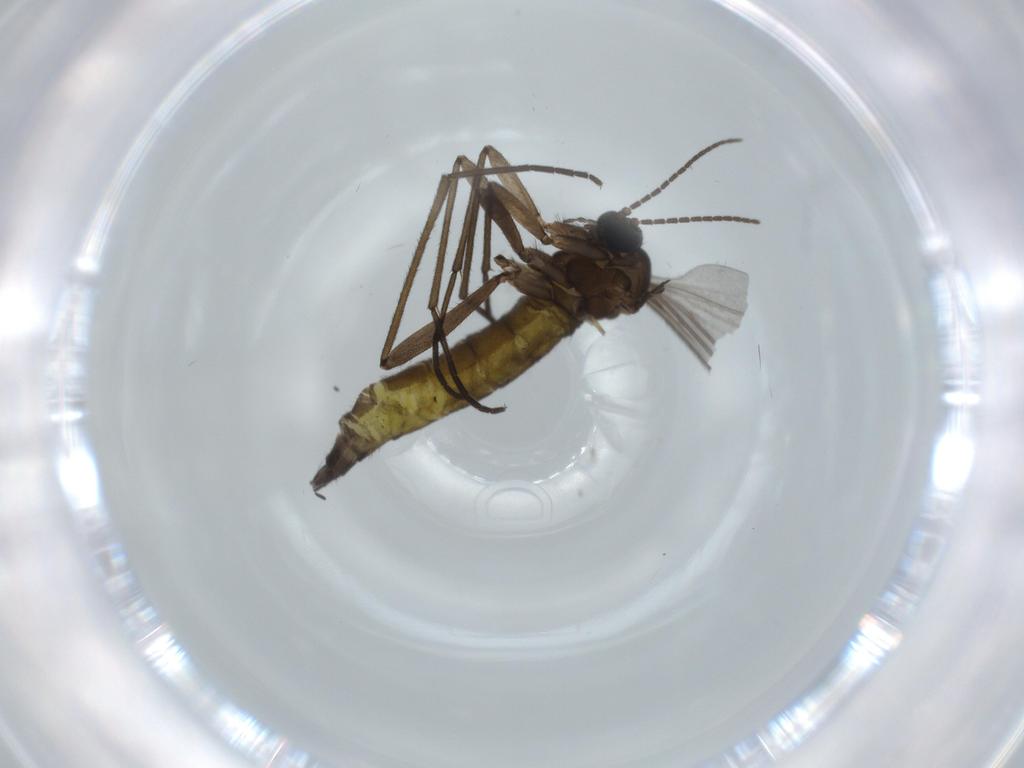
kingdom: Animalia
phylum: Arthropoda
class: Insecta
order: Diptera
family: Sciaridae
